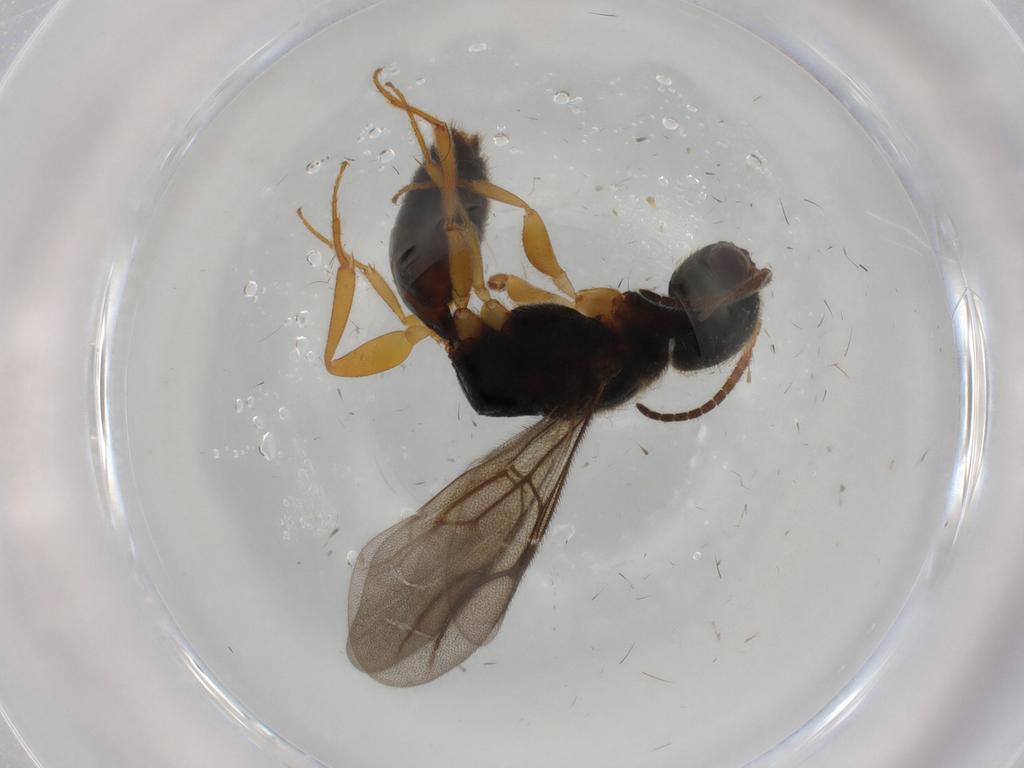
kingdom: Animalia
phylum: Arthropoda
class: Insecta
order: Hymenoptera
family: Bethylidae
